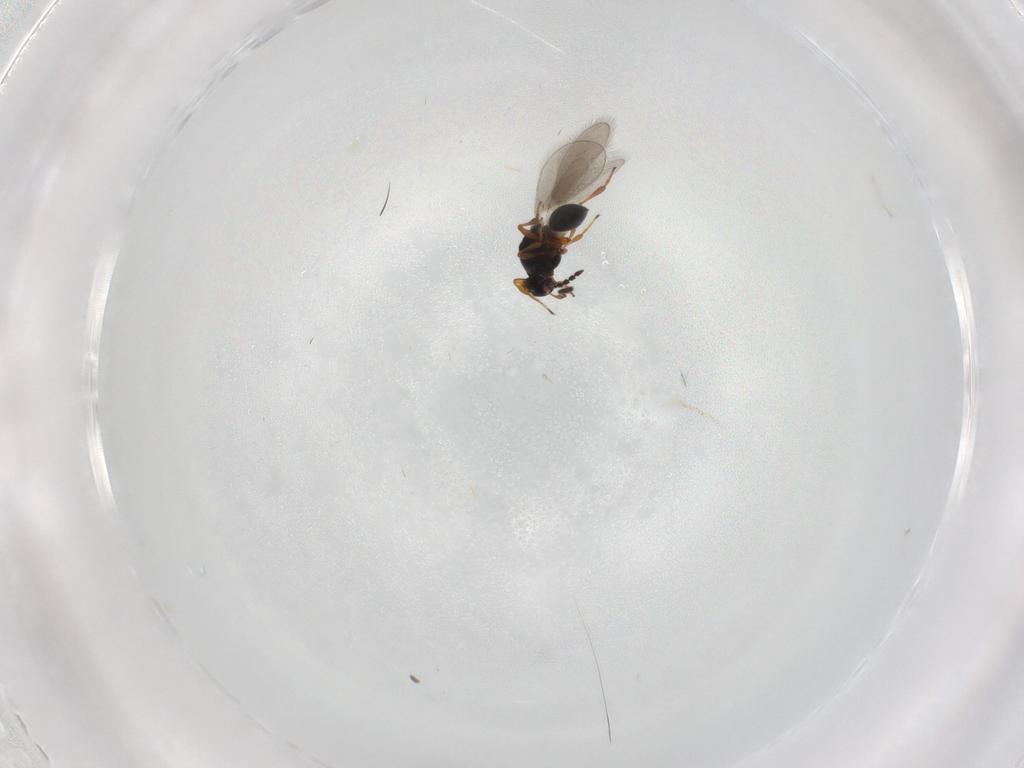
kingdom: Animalia
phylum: Arthropoda
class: Insecta
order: Hymenoptera
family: Platygastridae
